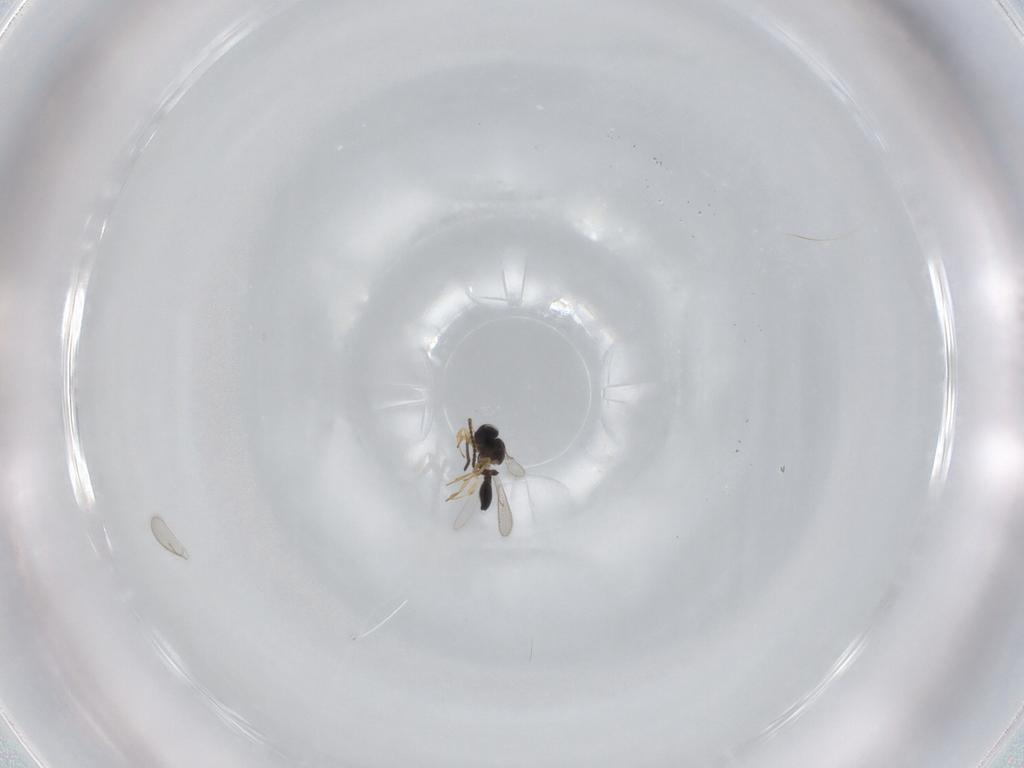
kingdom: Animalia
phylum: Arthropoda
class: Insecta
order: Hymenoptera
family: Scelionidae
